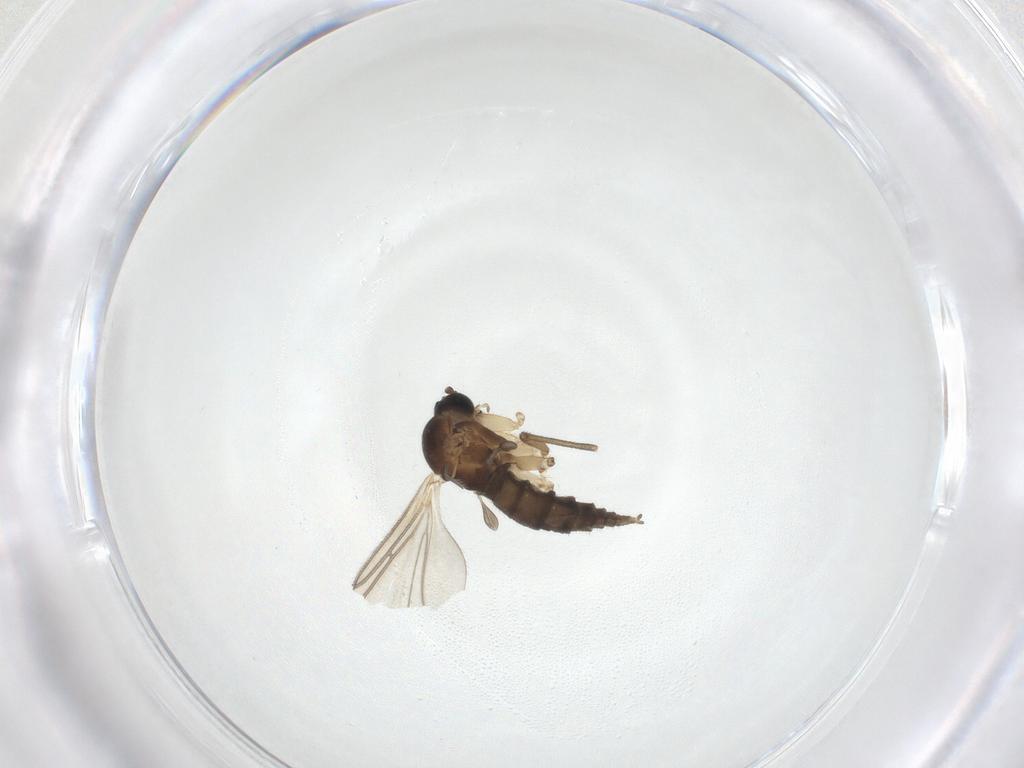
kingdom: Animalia
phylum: Arthropoda
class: Insecta
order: Diptera
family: Sciaridae
